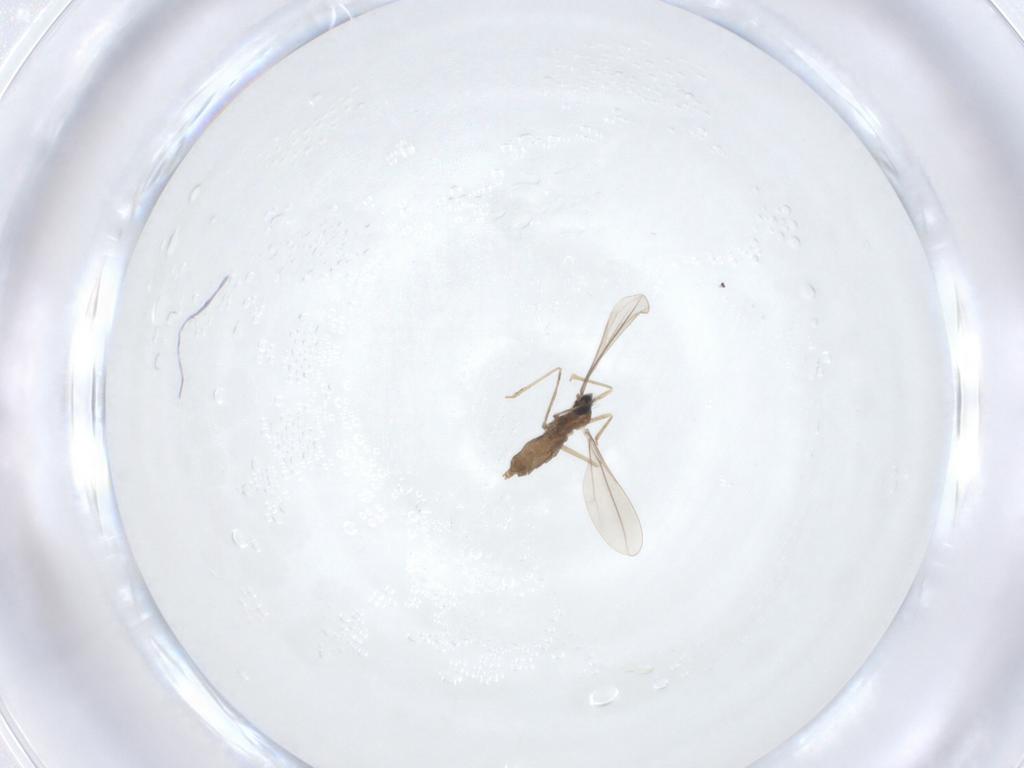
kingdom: Animalia
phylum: Arthropoda
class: Insecta
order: Diptera
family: Cecidomyiidae
